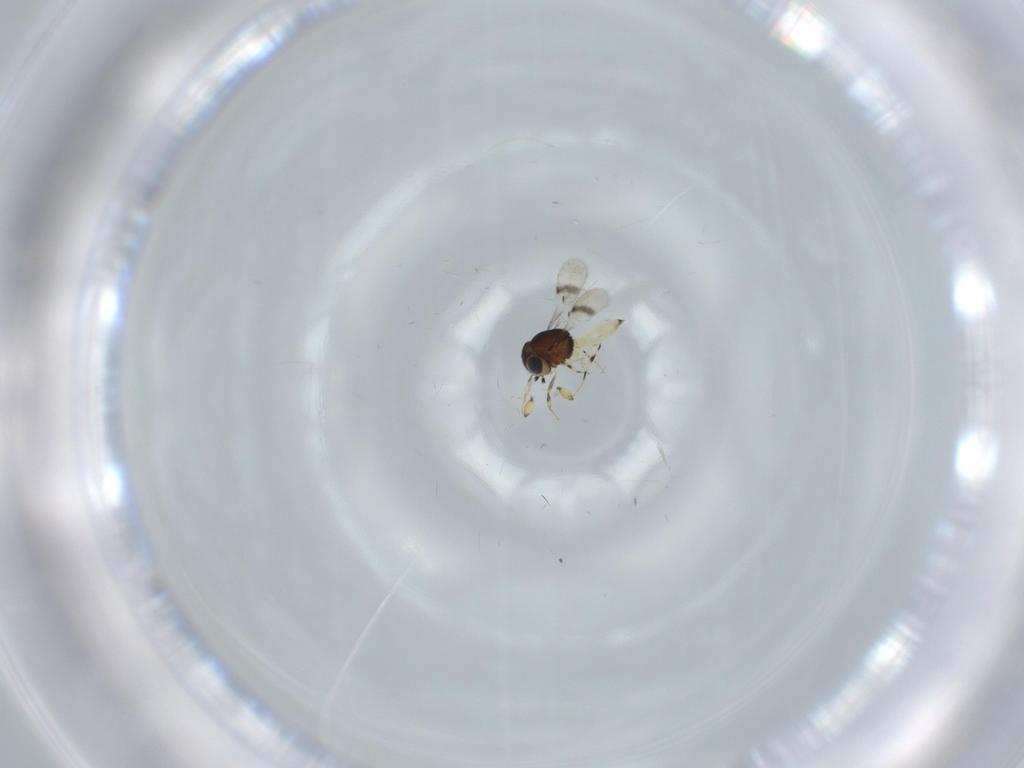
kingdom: Animalia
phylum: Arthropoda
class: Insecta
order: Hymenoptera
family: Scelionidae
